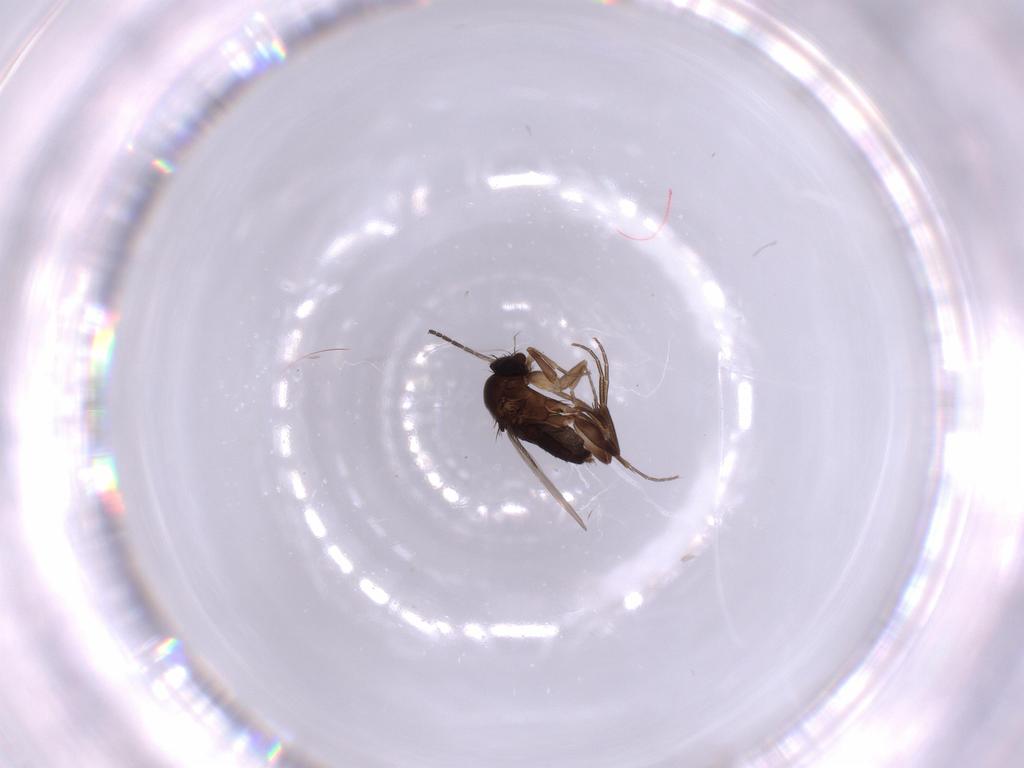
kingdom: Animalia
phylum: Arthropoda
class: Insecta
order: Diptera
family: Phoridae
